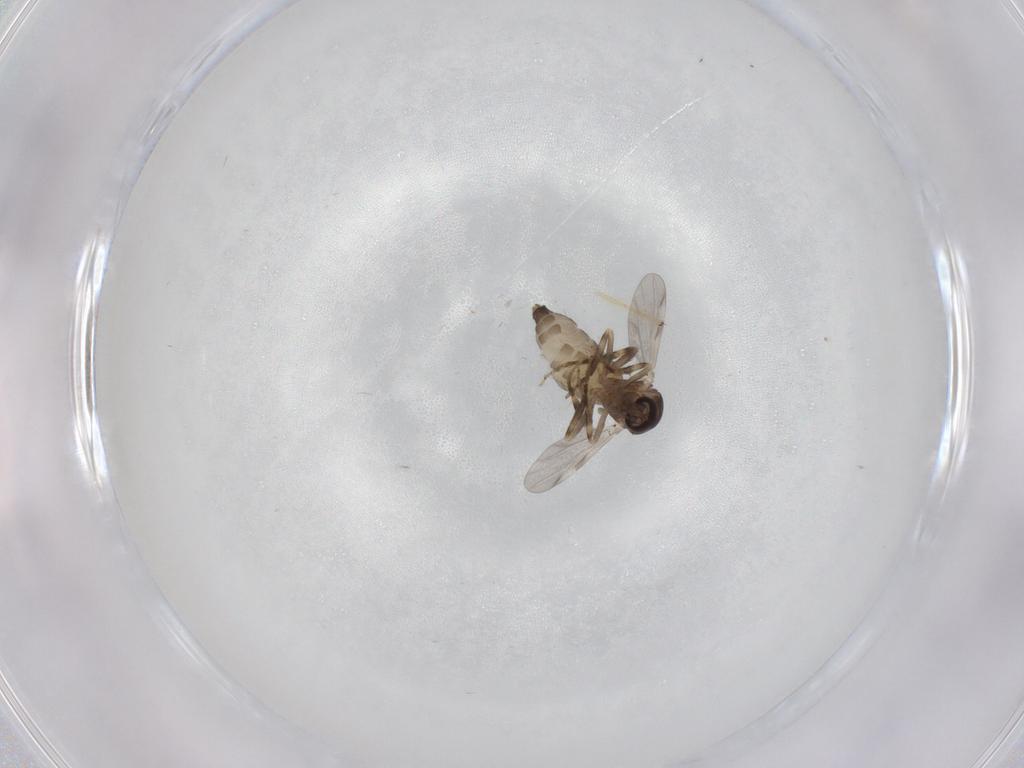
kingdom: Animalia
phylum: Arthropoda
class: Insecta
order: Diptera
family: Ceratopogonidae
